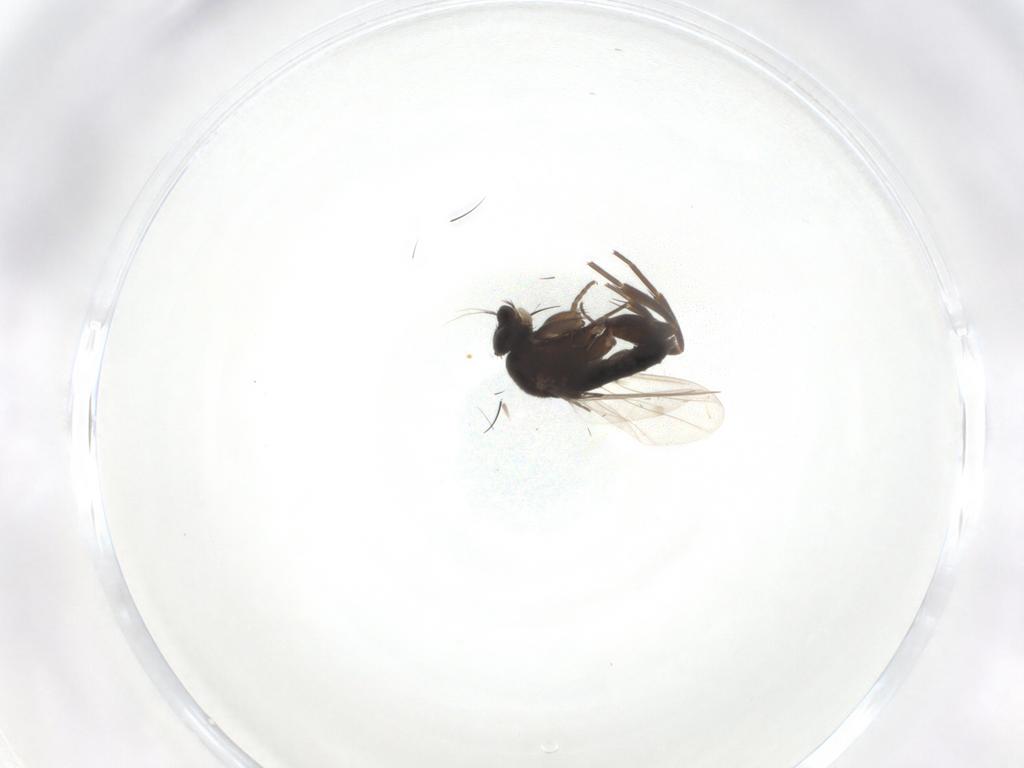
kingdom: Animalia
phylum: Arthropoda
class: Insecta
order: Diptera
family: Phoridae
